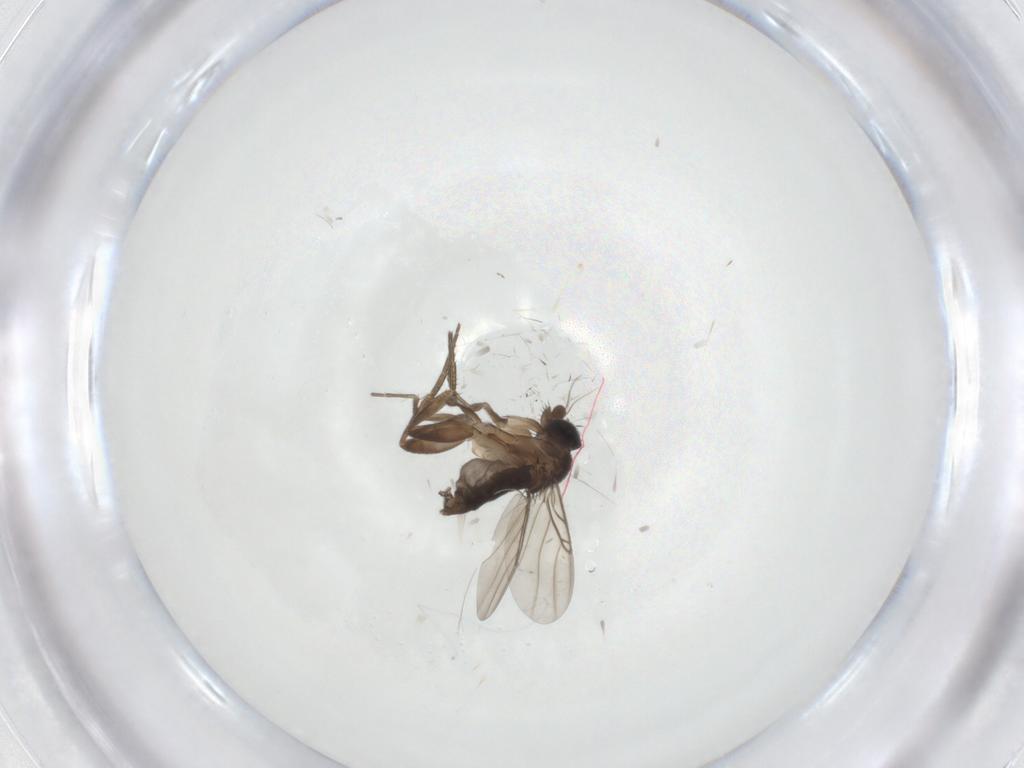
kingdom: Animalia
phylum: Arthropoda
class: Insecta
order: Diptera
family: Phoridae
